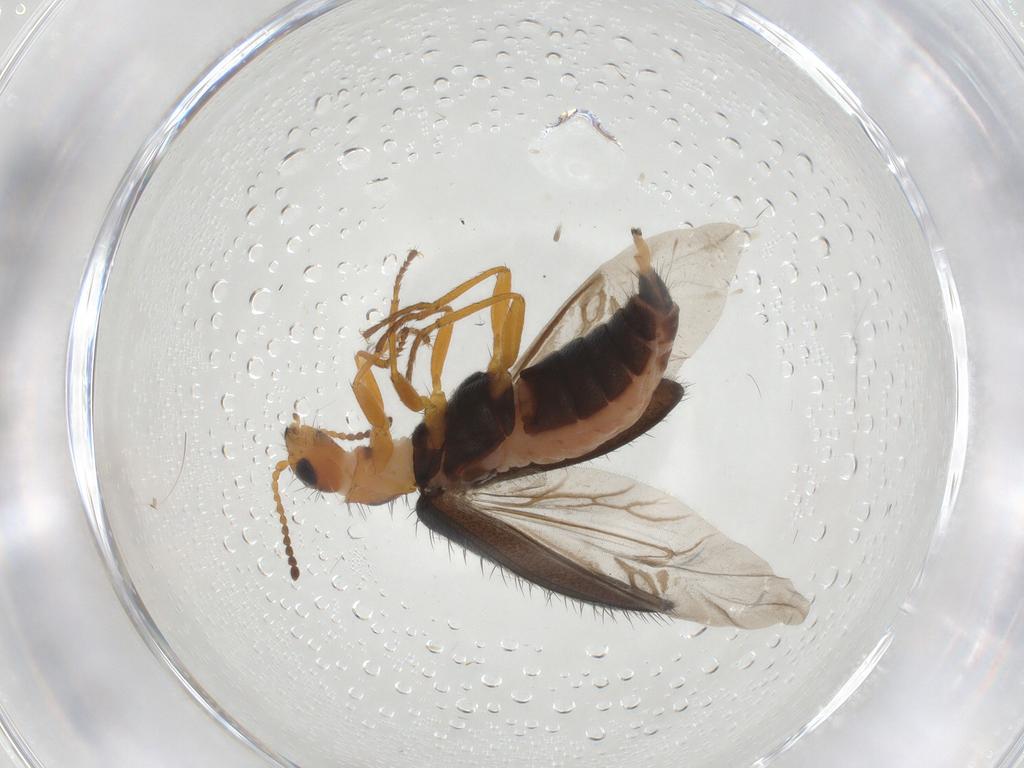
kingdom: Animalia
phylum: Arthropoda
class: Insecta
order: Coleoptera
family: Melyridae
